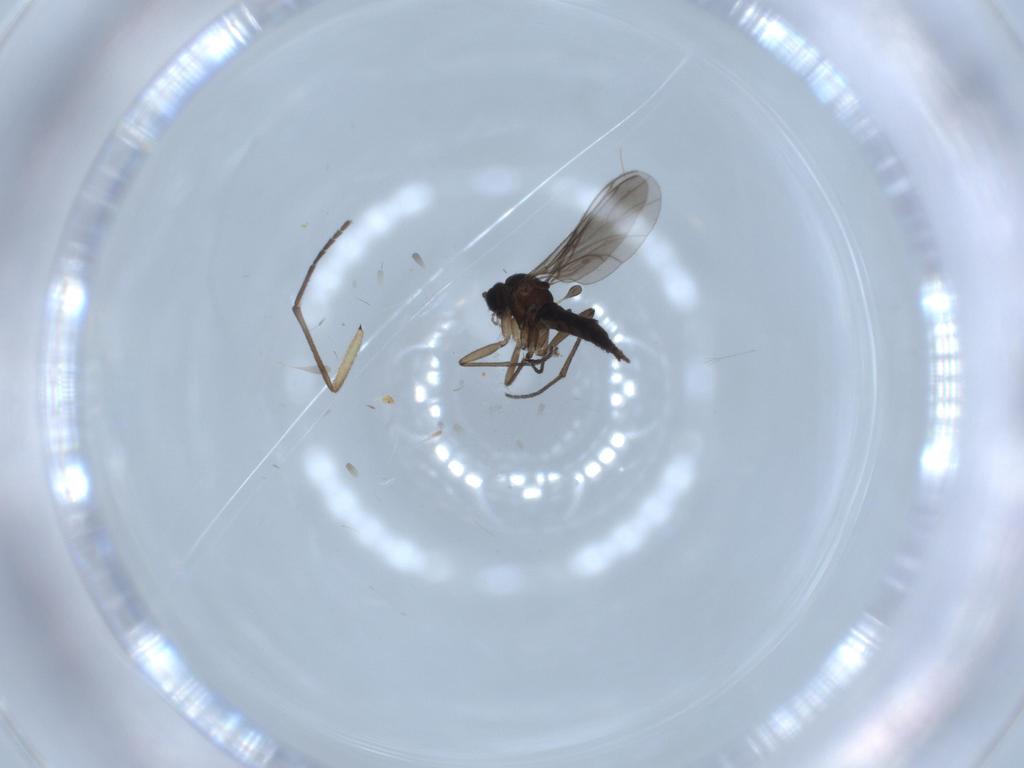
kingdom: Animalia
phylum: Arthropoda
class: Insecta
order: Diptera
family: Sciaridae
